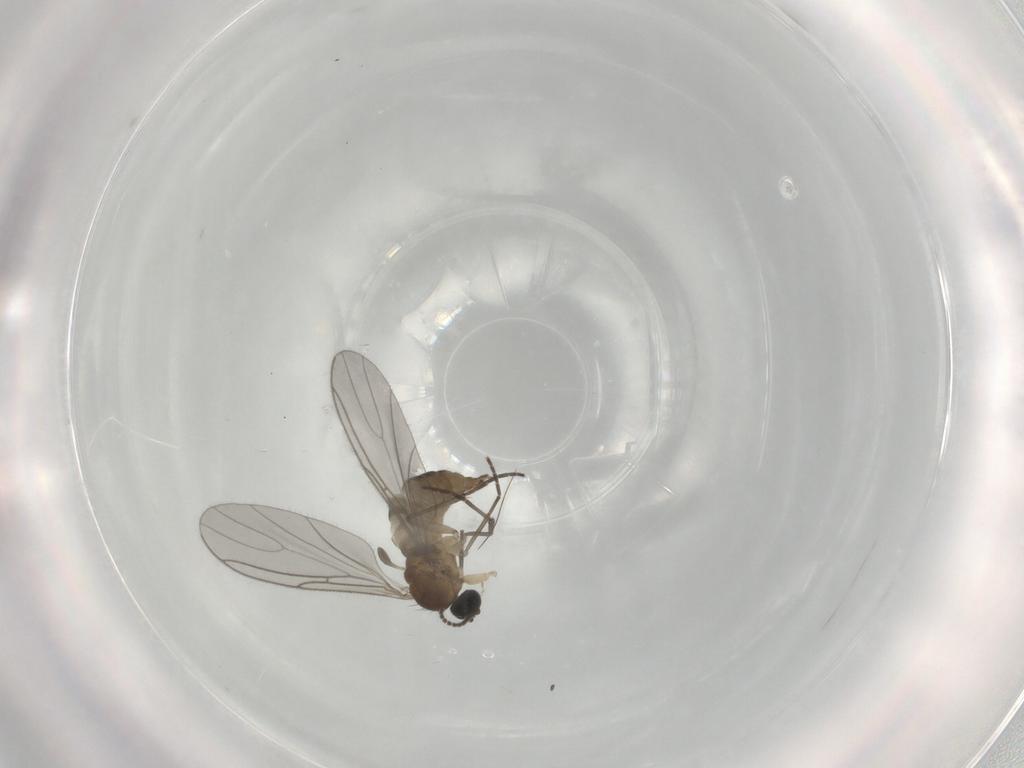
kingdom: Animalia
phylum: Arthropoda
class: Insecta
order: Diptera
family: Sciaridae
